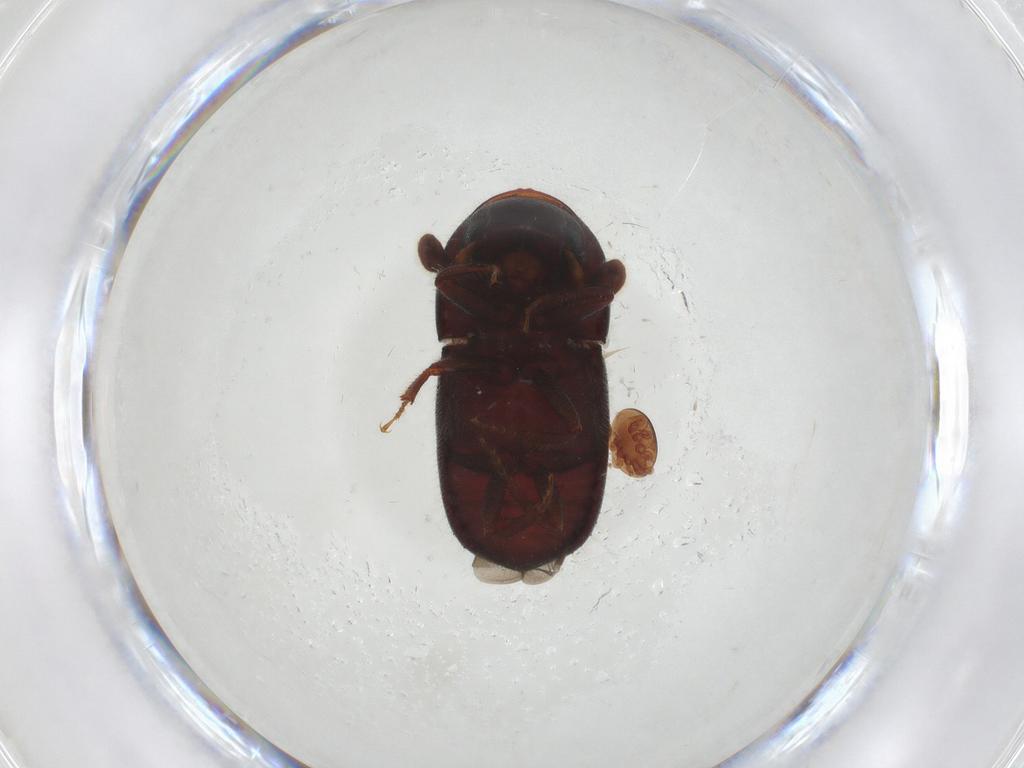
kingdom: Animalia
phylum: Arthropoda
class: Insecta
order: Coleoptera
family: Curculionidae
